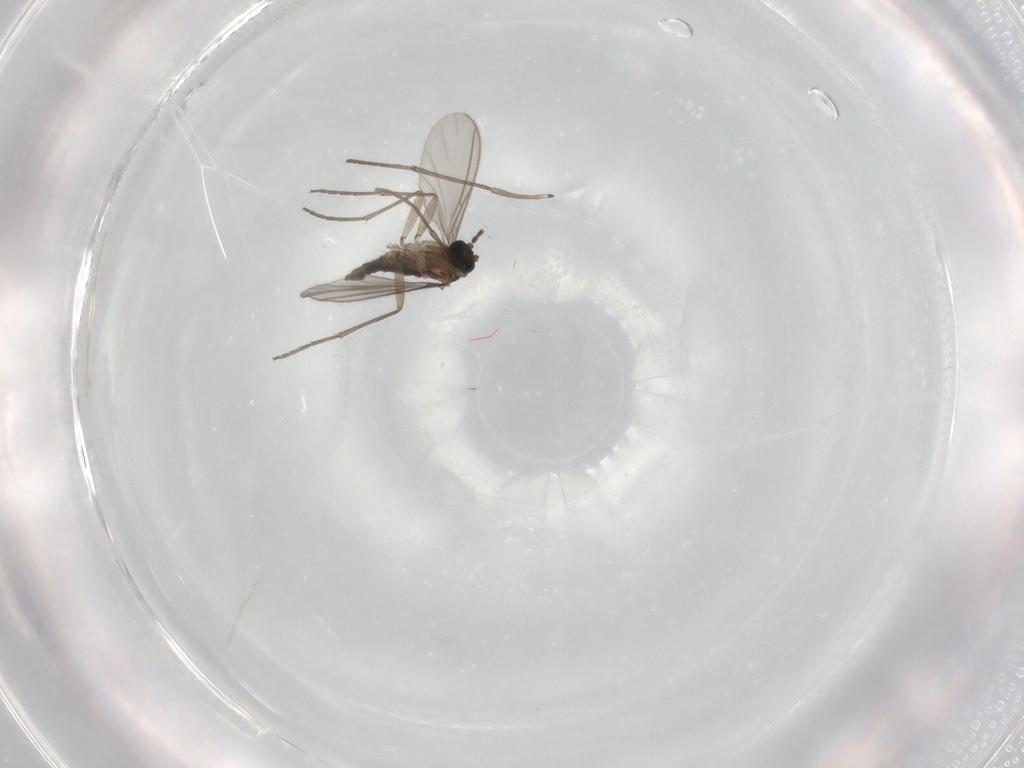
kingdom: Animalia
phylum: Arthropoda
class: Insecta
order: Diptera
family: Sciaridae
